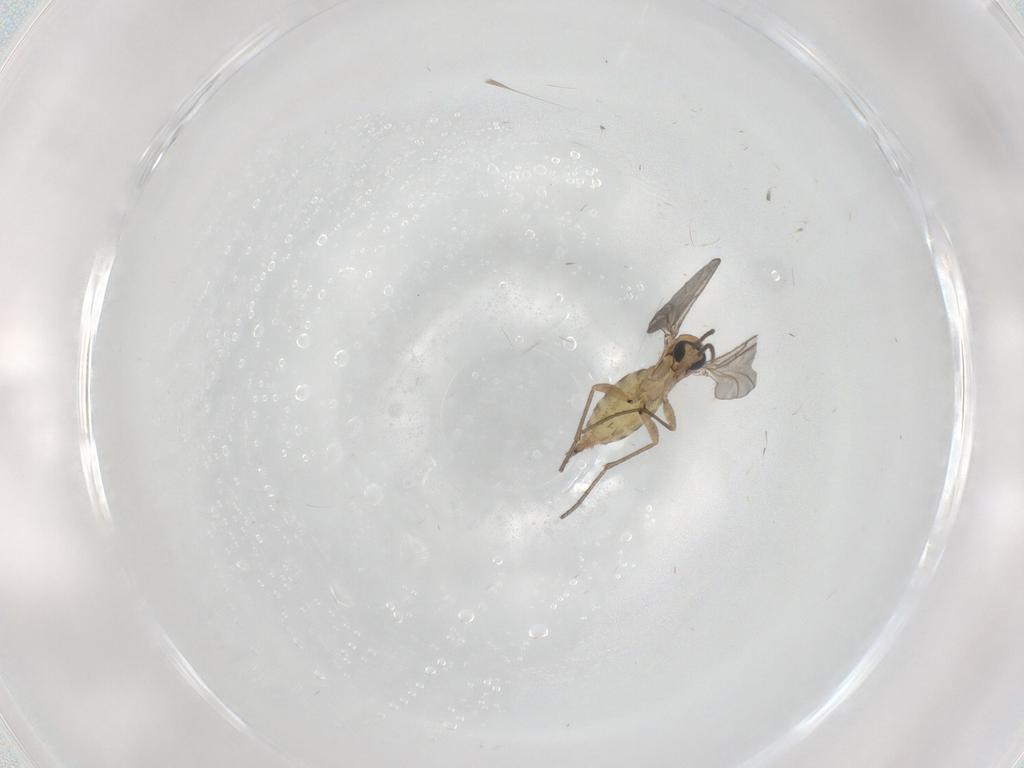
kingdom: Animalia
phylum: Arthropoda
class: Insecta
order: Diptera
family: Sciaridae
